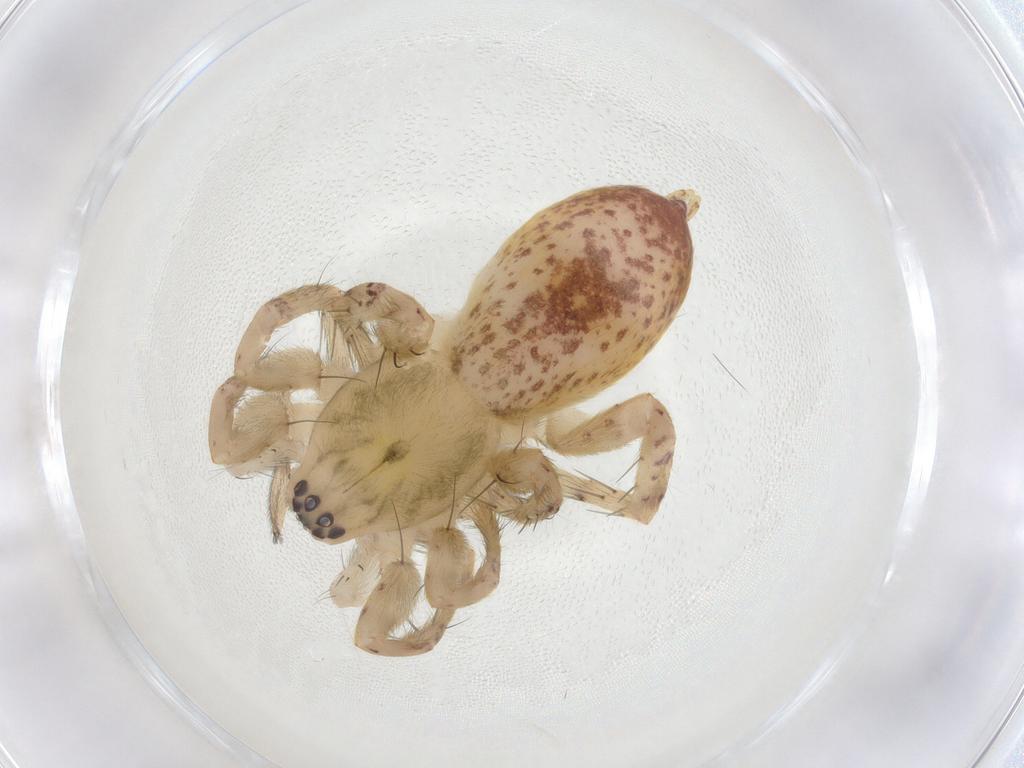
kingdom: Animalia
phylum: Arthropoda
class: Arachnida
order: Araneae
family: Anyphaenidae
